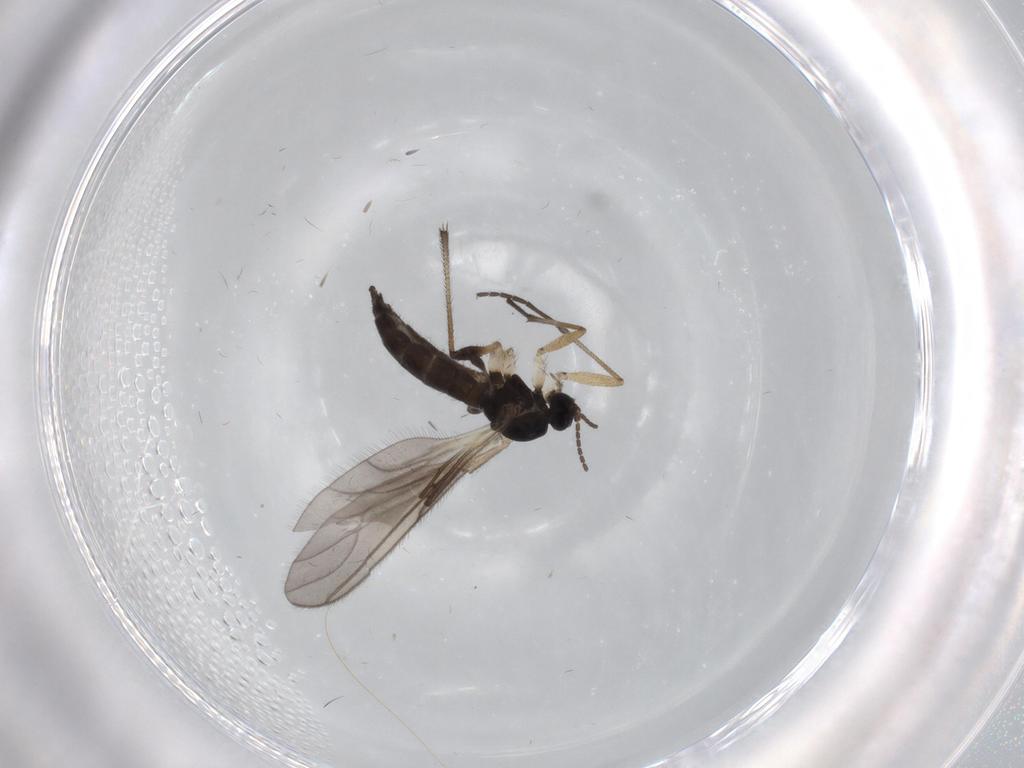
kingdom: Animalia
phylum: Arthropoda
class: Insecta
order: Diptera
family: Sciaridae
